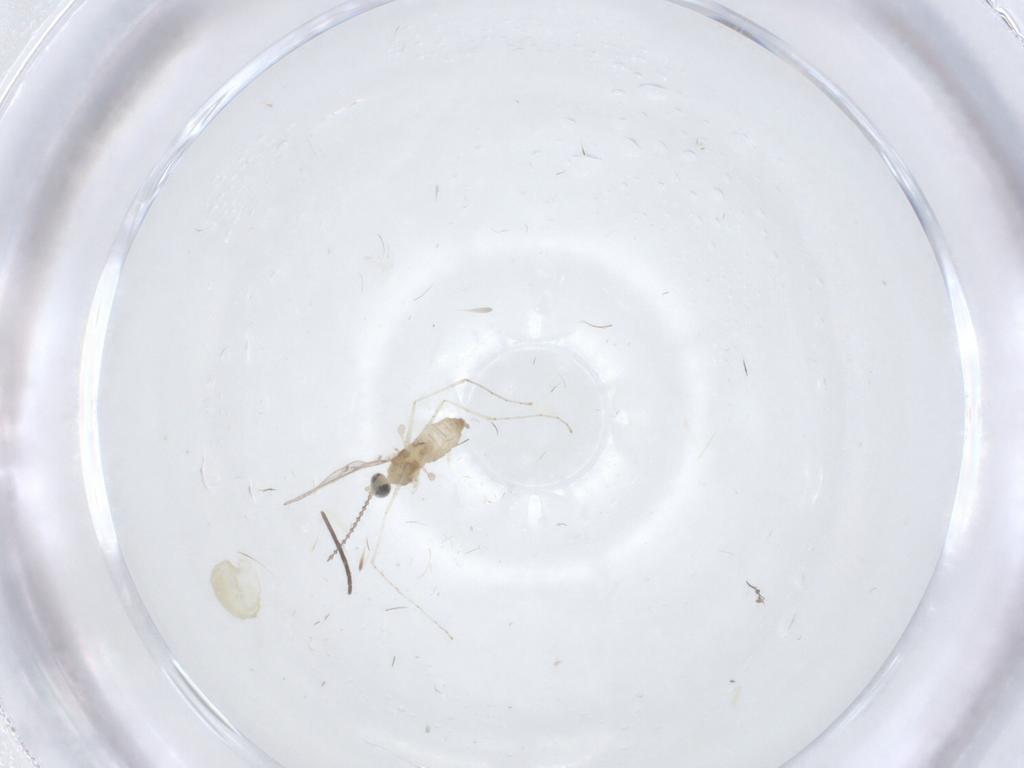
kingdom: Animalia
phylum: Arthropoda
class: Insecta
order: Diptera
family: Cecidomyiidae
